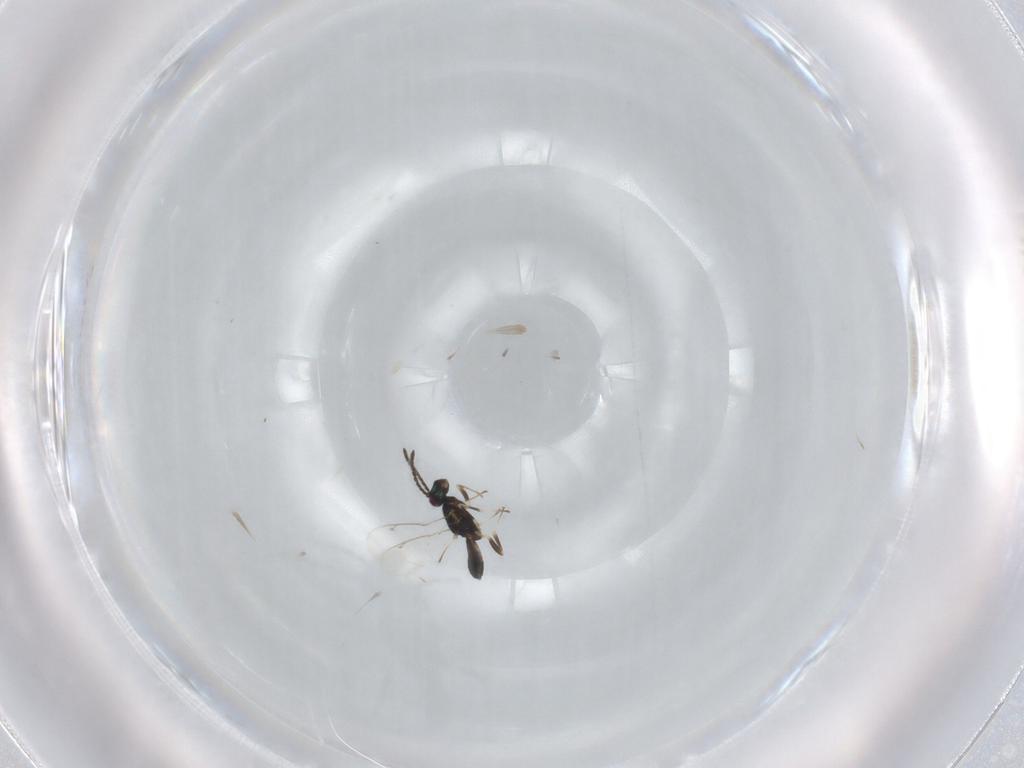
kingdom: Animalia
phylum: Arthropoda
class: Insecta
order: Hymenoptera
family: Eupelmidae
